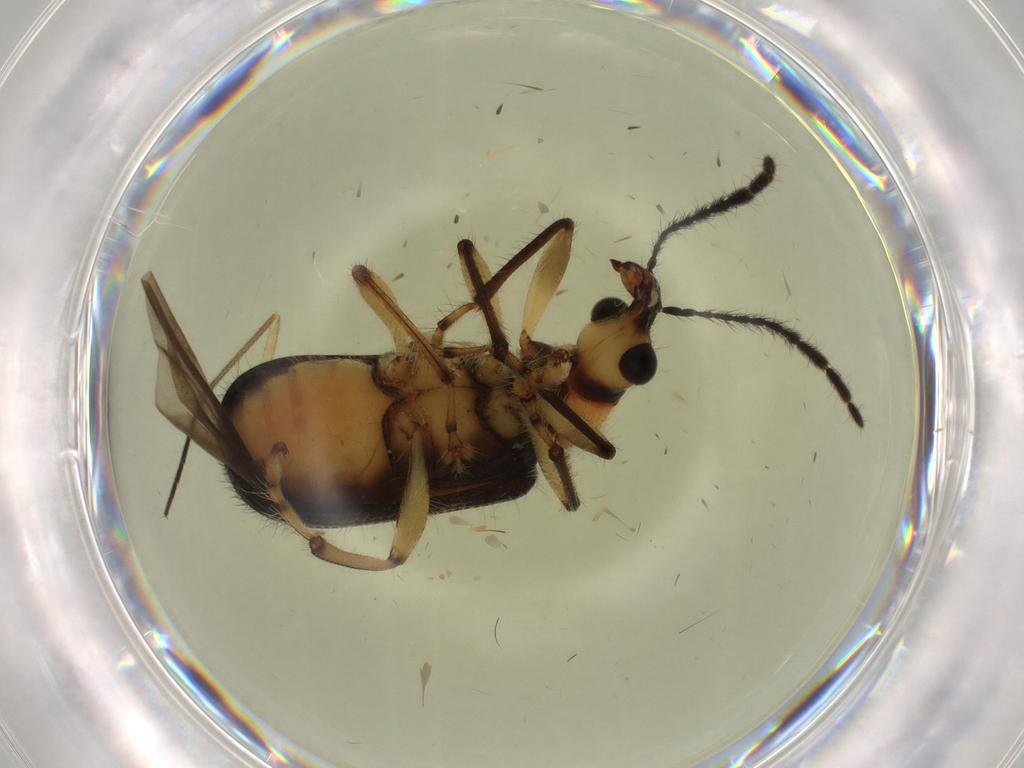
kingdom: Animalia
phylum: Arthropoda
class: Insecta
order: Coleoptera
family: Attelabidae
